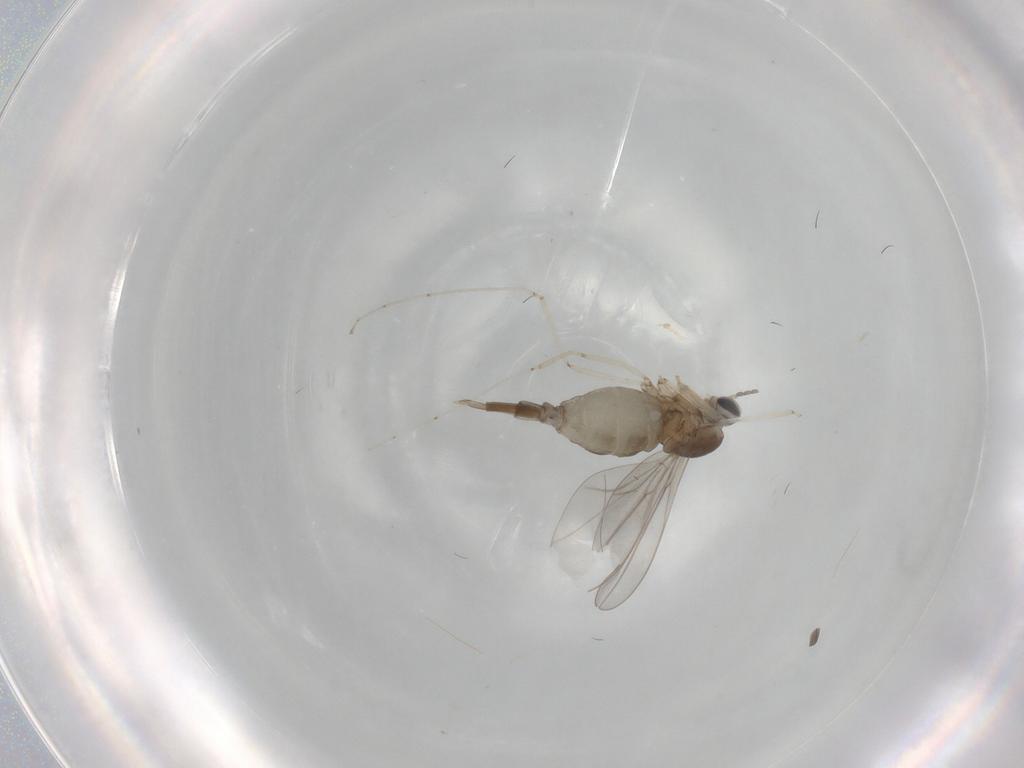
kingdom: Animalia
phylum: Arthropoda
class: Insecta
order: Diptera
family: Cecidomyiidae
